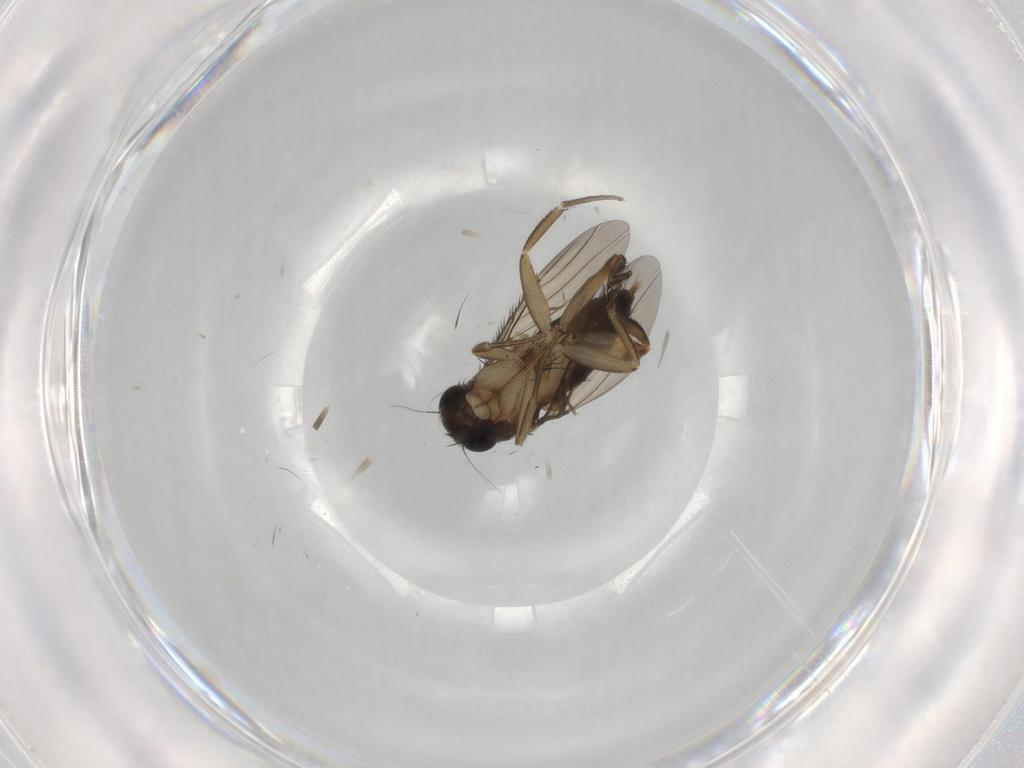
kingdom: Animalia
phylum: Arthropoda
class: Insecta
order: Diptera
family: Phoridae
